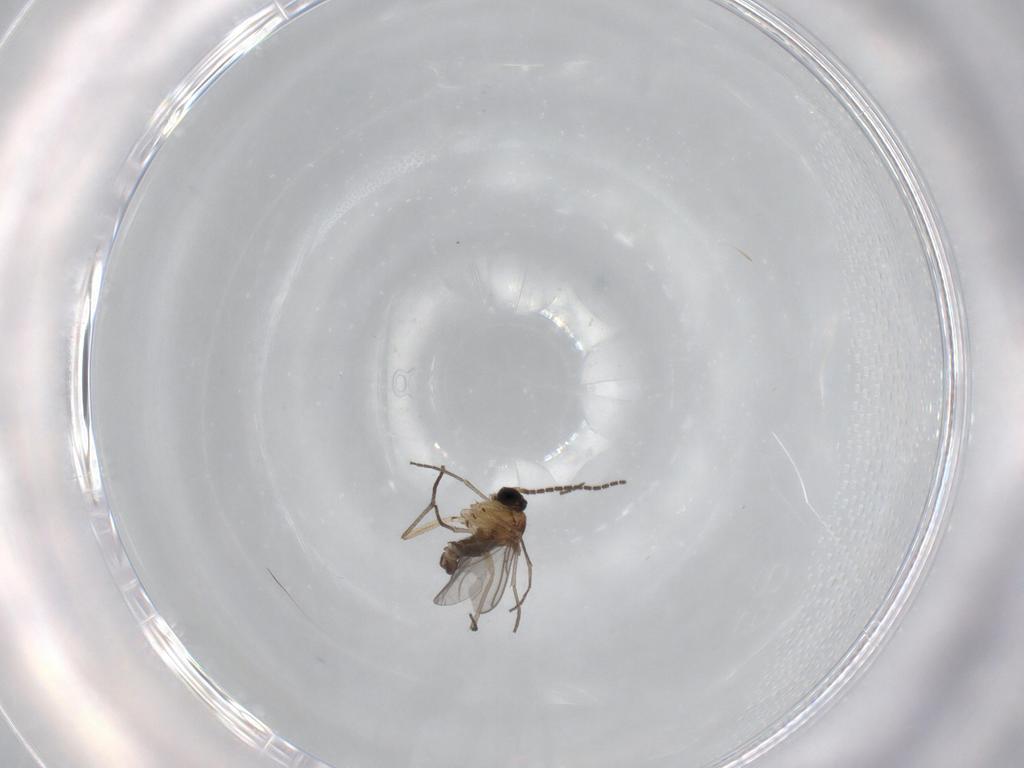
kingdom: Animalia
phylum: Arthropoda
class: Insecta
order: Diptera
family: Sciaridae
